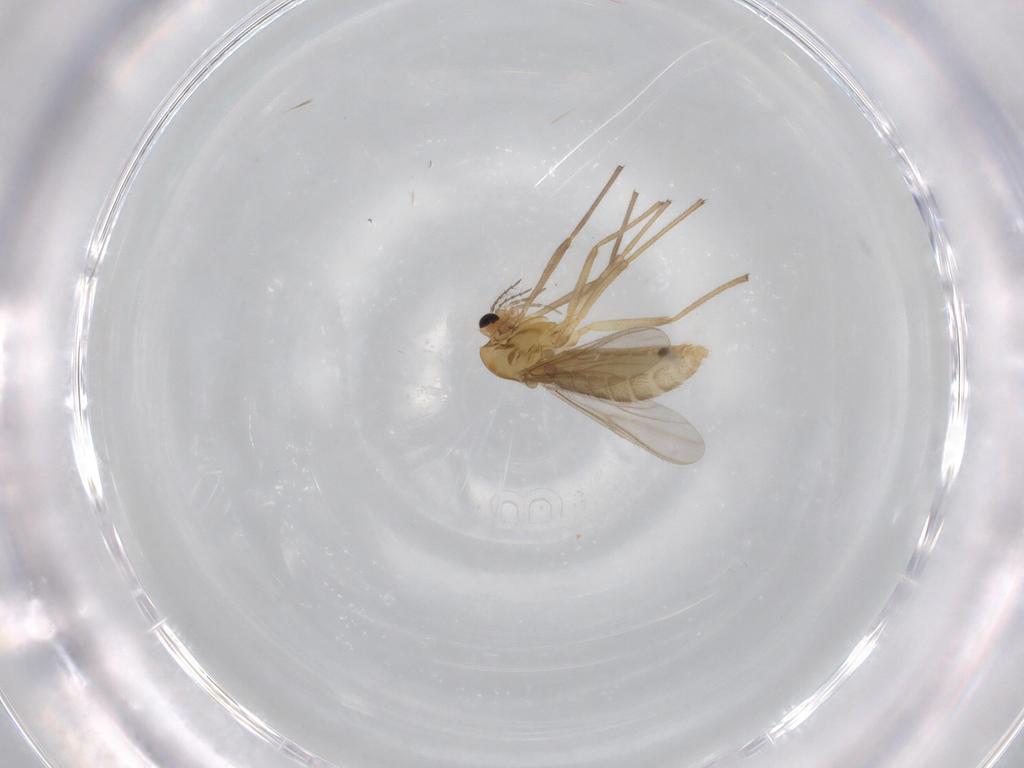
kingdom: Animalia
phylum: Arthropoda
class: Insecta
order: Diptera
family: Chironomidae
